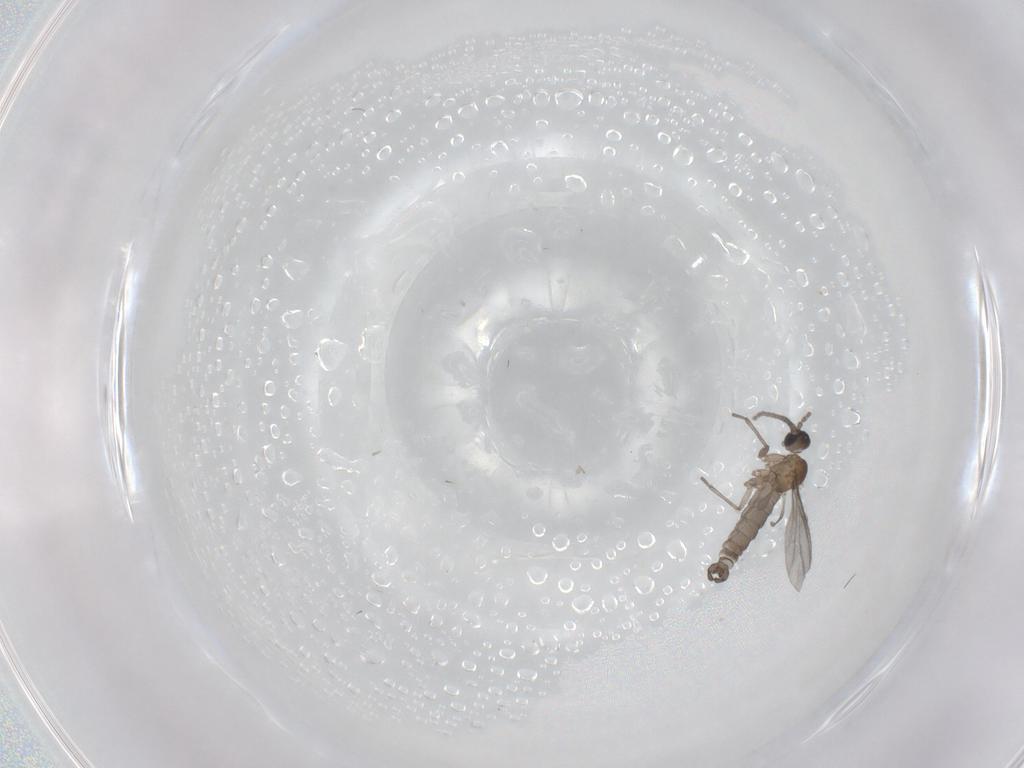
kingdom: Animalia
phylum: Arthropoda
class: Insecta
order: Diptera
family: Sciaridae
